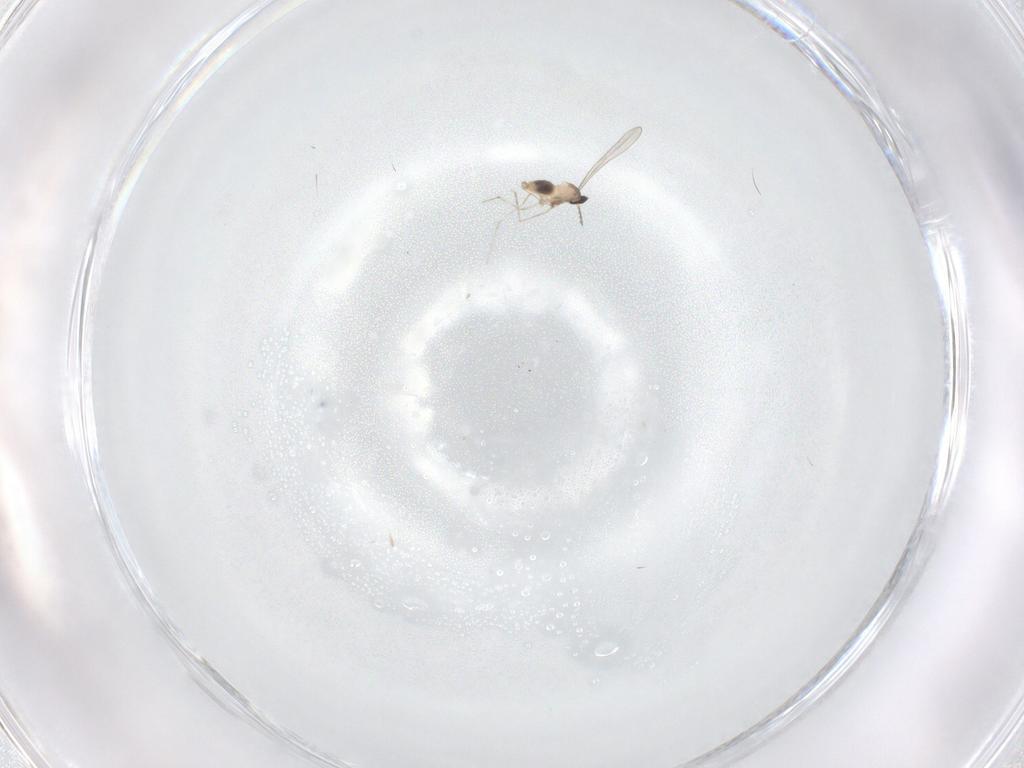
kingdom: Animalia
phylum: Arthropoda
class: Insecta
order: Diptera
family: Cecidomyiidae
